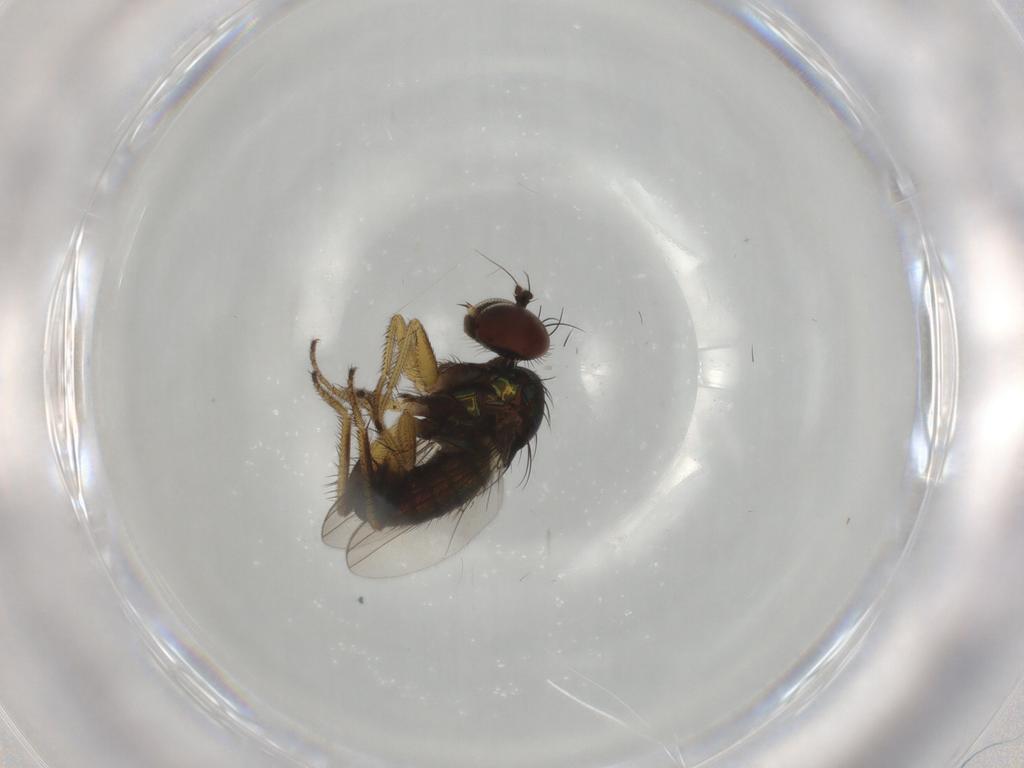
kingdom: Animalia
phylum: Arthropoda
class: Insecta
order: Diptera
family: Dolichopodidae
